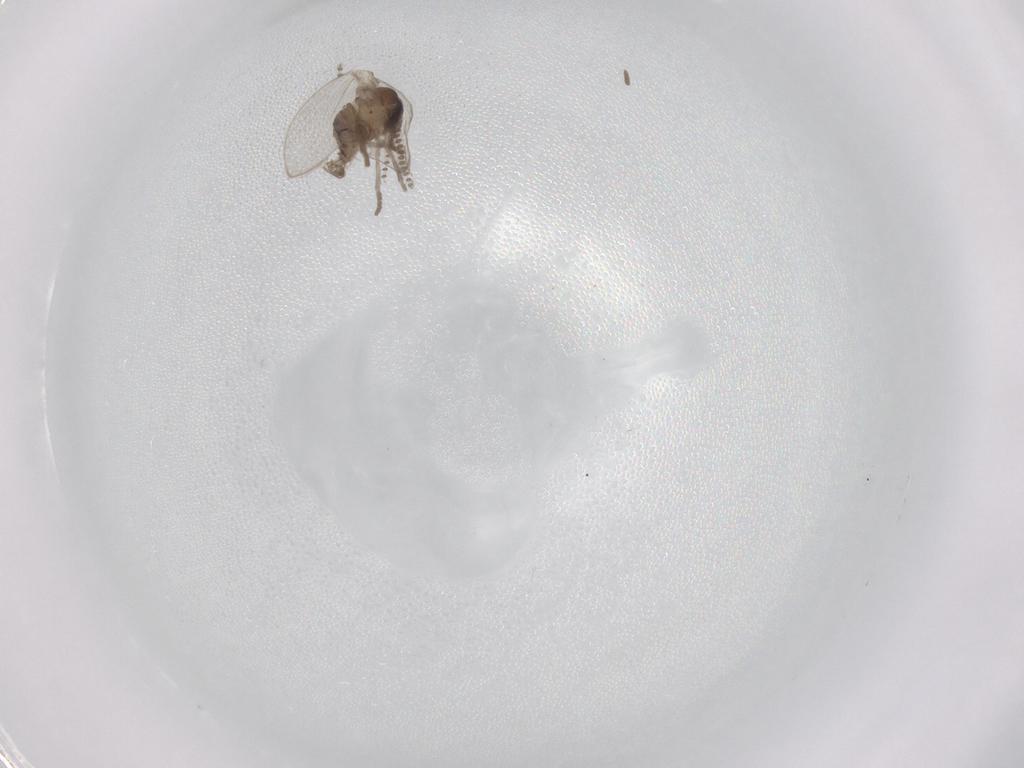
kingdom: Animalia
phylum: Arthropoda
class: Insecta
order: Diptera
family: Psychodidae
